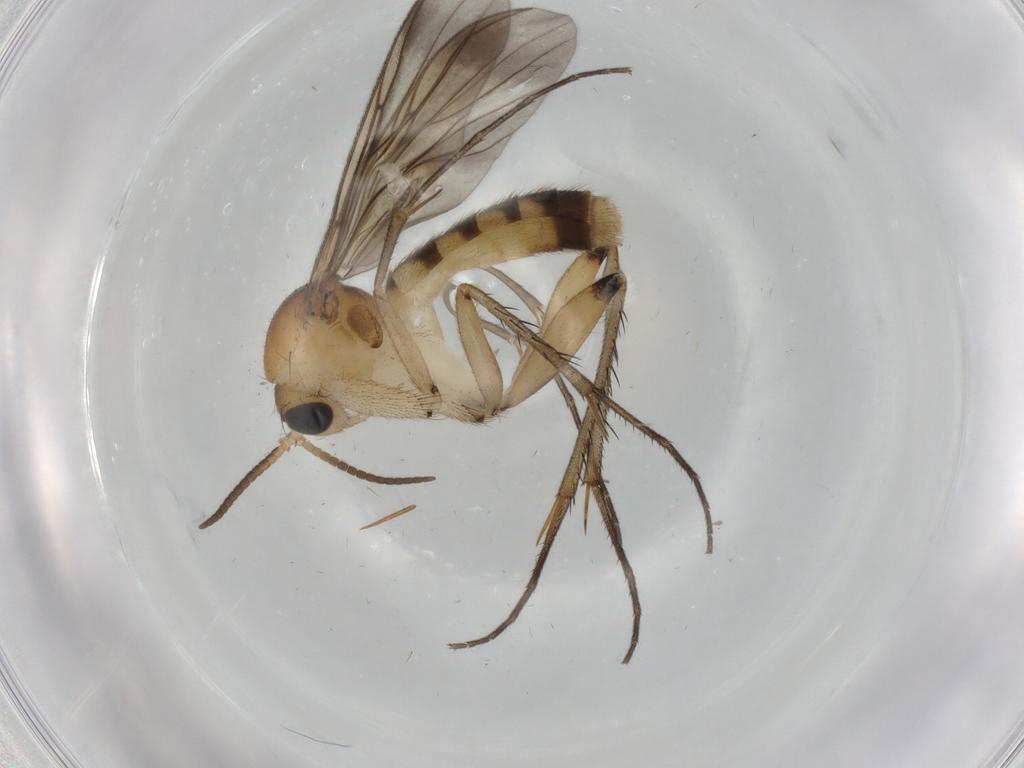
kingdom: Animalia
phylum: Arthropoda
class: Insecta
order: Diptera
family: Mycetophilidae
